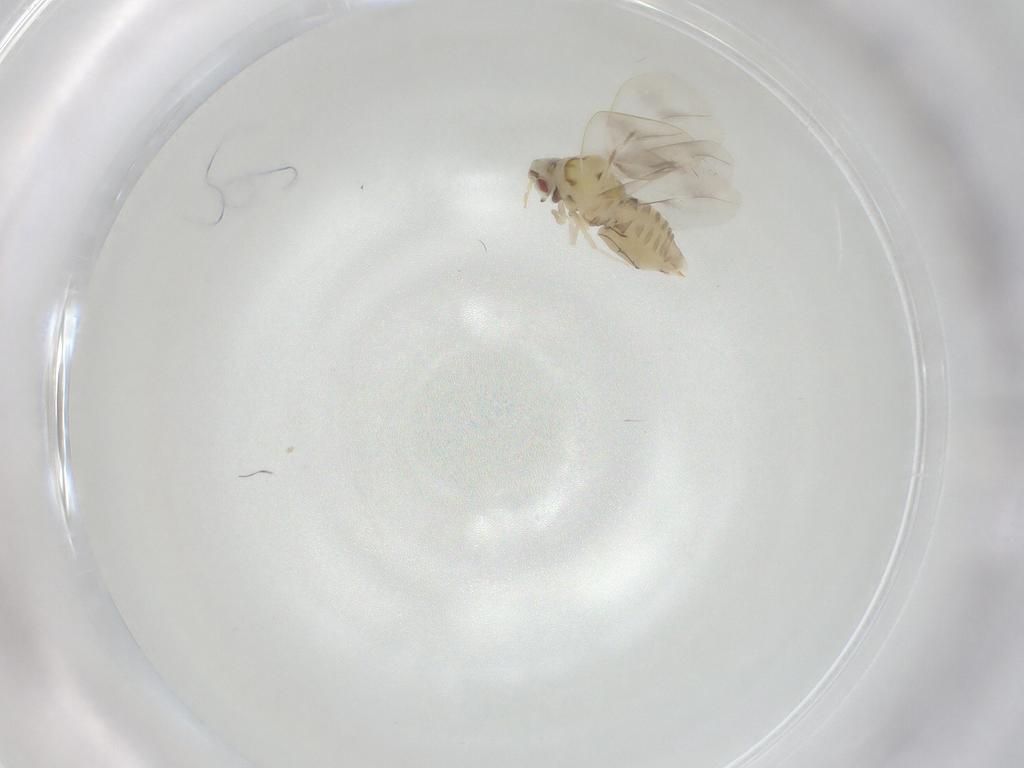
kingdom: Animalia
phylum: Arthropoda
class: Insecta
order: Hemiptera
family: Aleyrodidae
